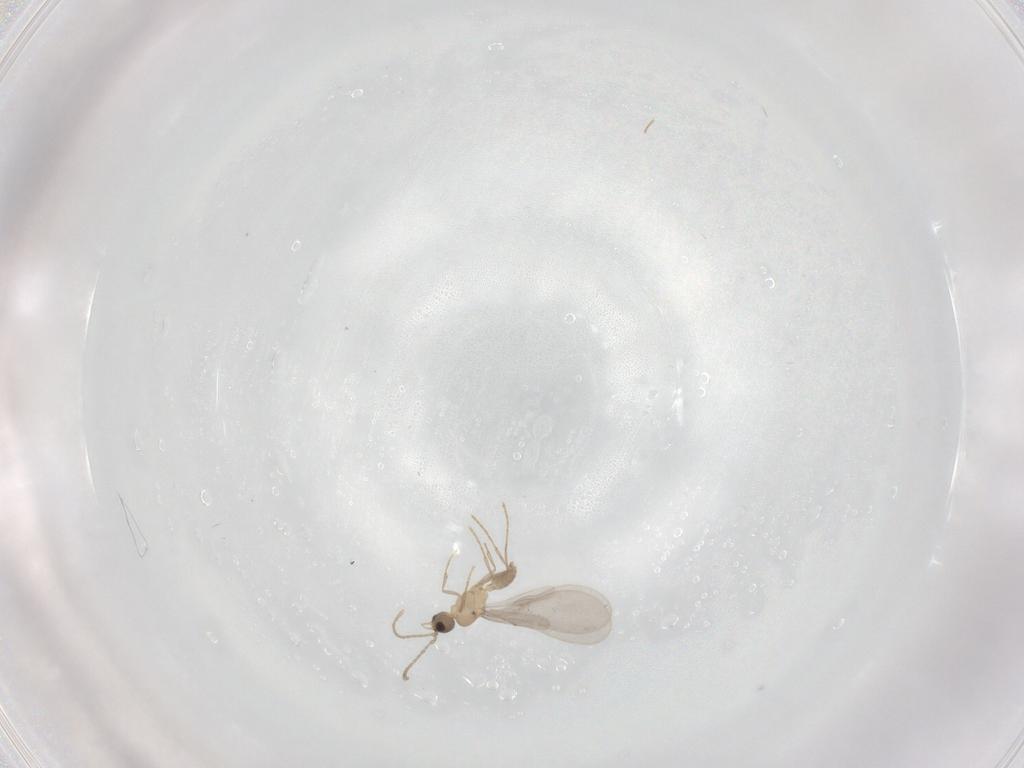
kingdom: Animalia
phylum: Arthropoda
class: Insecta
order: Hymenoptera
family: Formicidae
